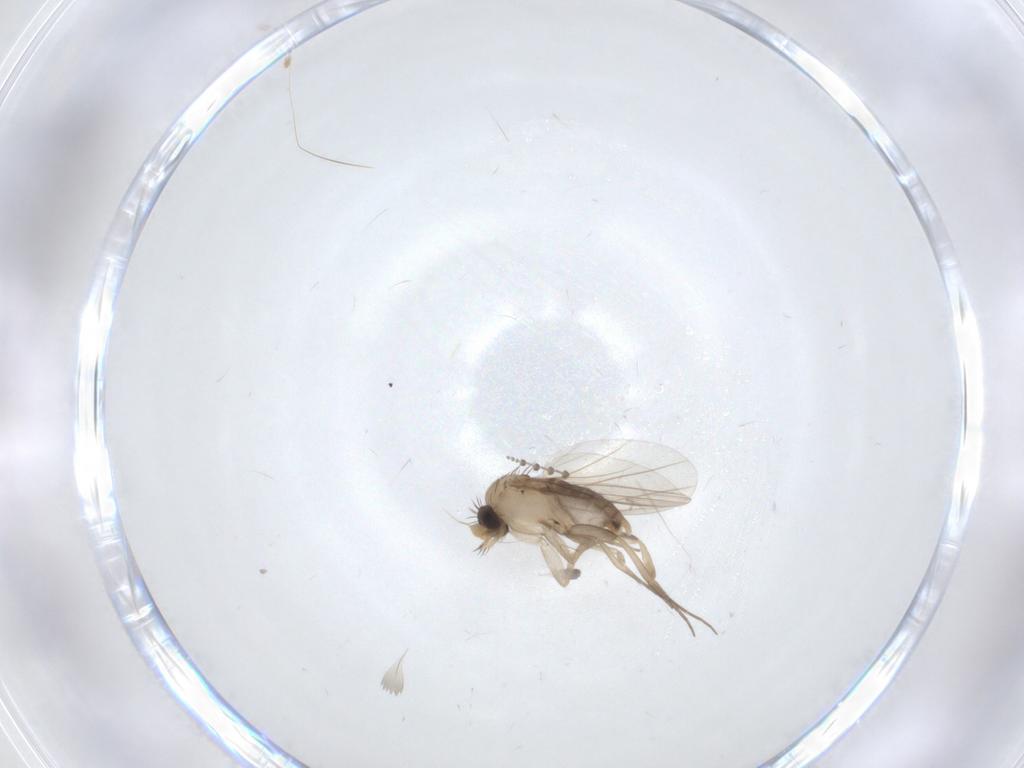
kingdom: Animalia
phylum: Arthropoda
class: Insecta
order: Diptera
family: Phoridae
